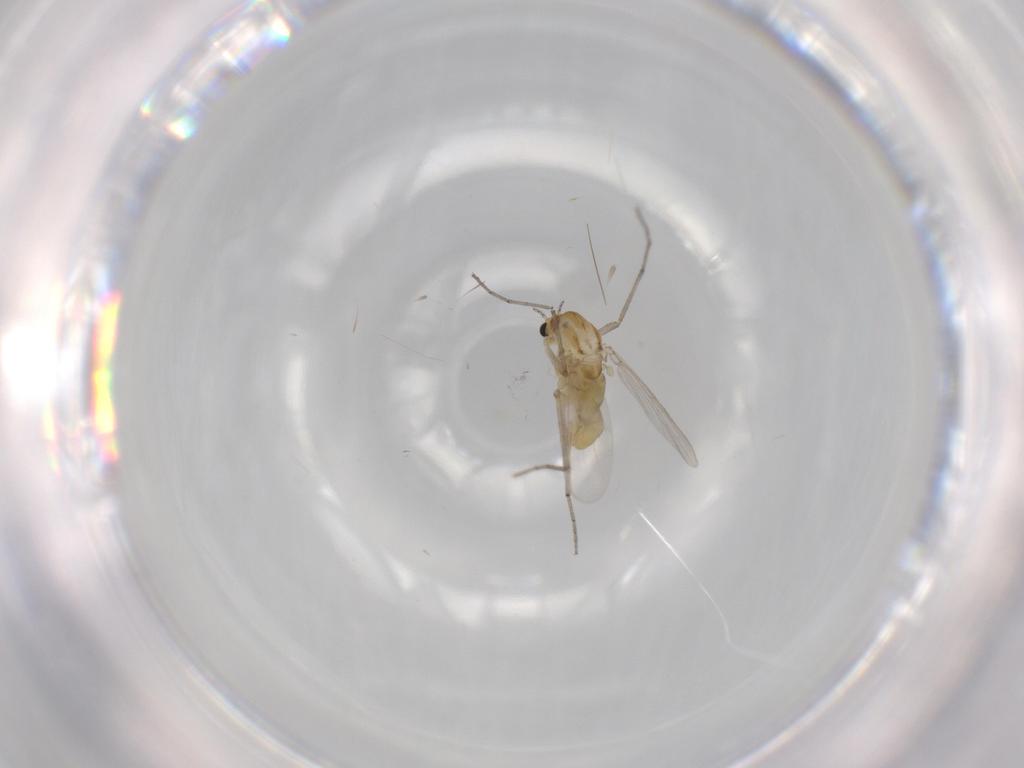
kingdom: Animalia
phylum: Arthropoda
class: Insecta
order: Diptera
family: Chironomidae
